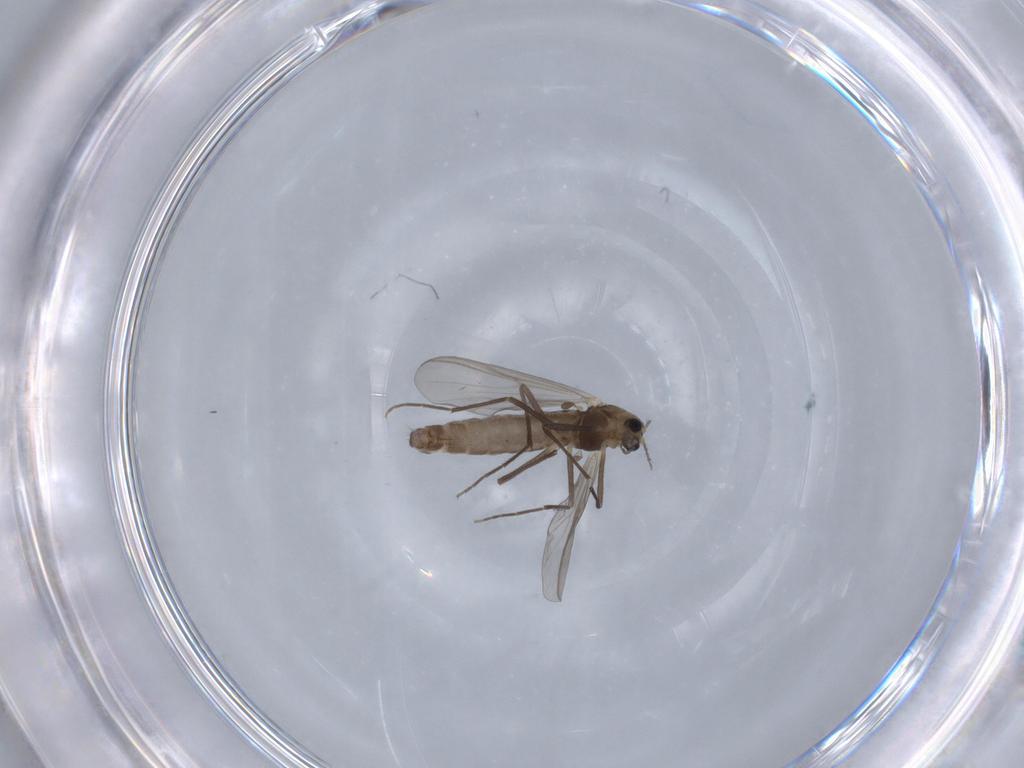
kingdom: Animalia
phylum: Arthropoda
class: Insecta
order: Diptera
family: Chironomidae
